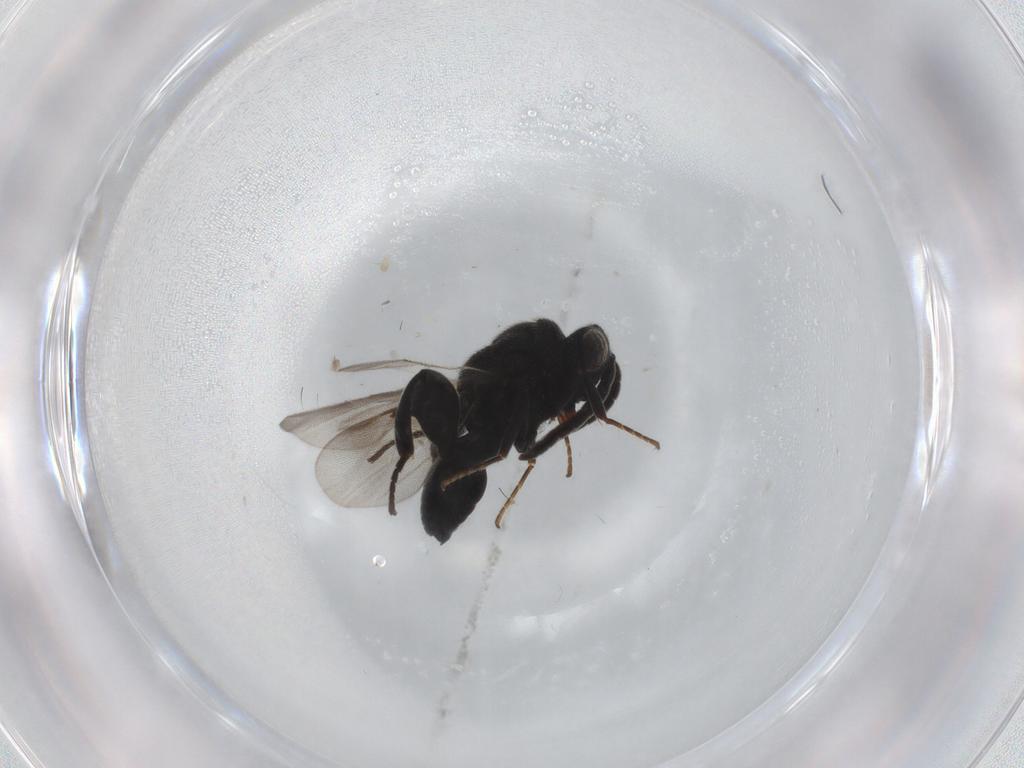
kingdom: Animalia
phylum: Arthropoda
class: Insecta
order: Hymenoptera
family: Chalcididae
